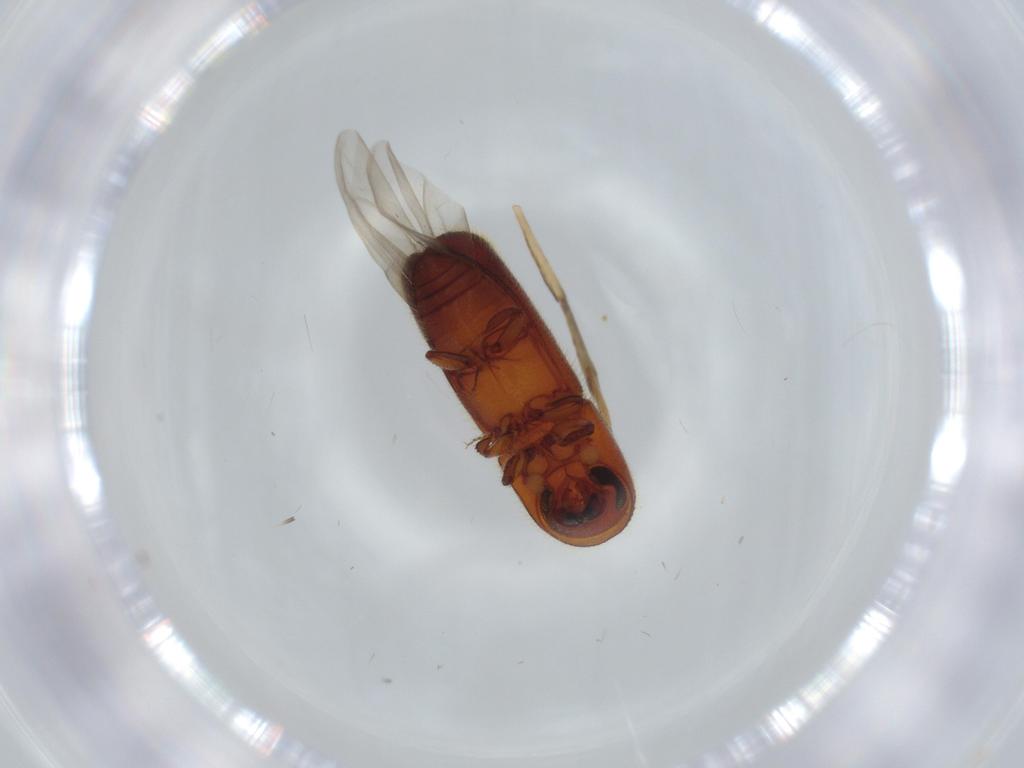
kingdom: Animalia
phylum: Arthropoda
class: Insecta
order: Coleoptera
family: Curculionidae
